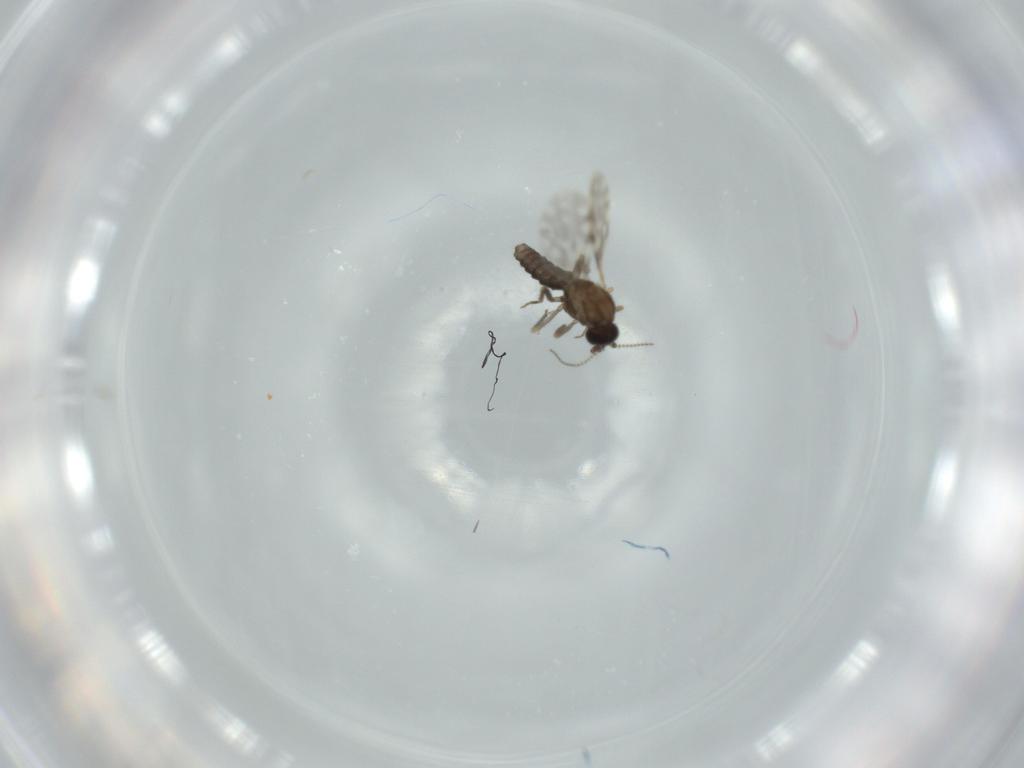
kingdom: Animalia
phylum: Arthropoda
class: Insecta
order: Diptera
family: Ceratopogonidae
